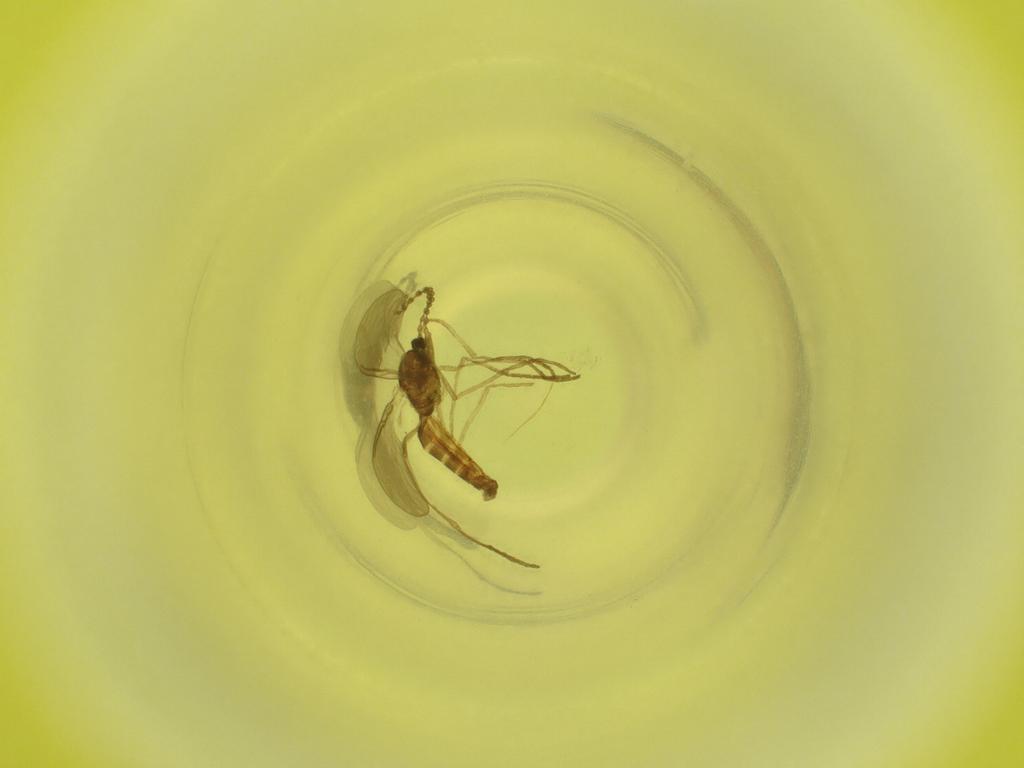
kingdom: Animalia
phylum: Arthropoda
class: Insecta
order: Diptera
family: Cecidomyiidae
